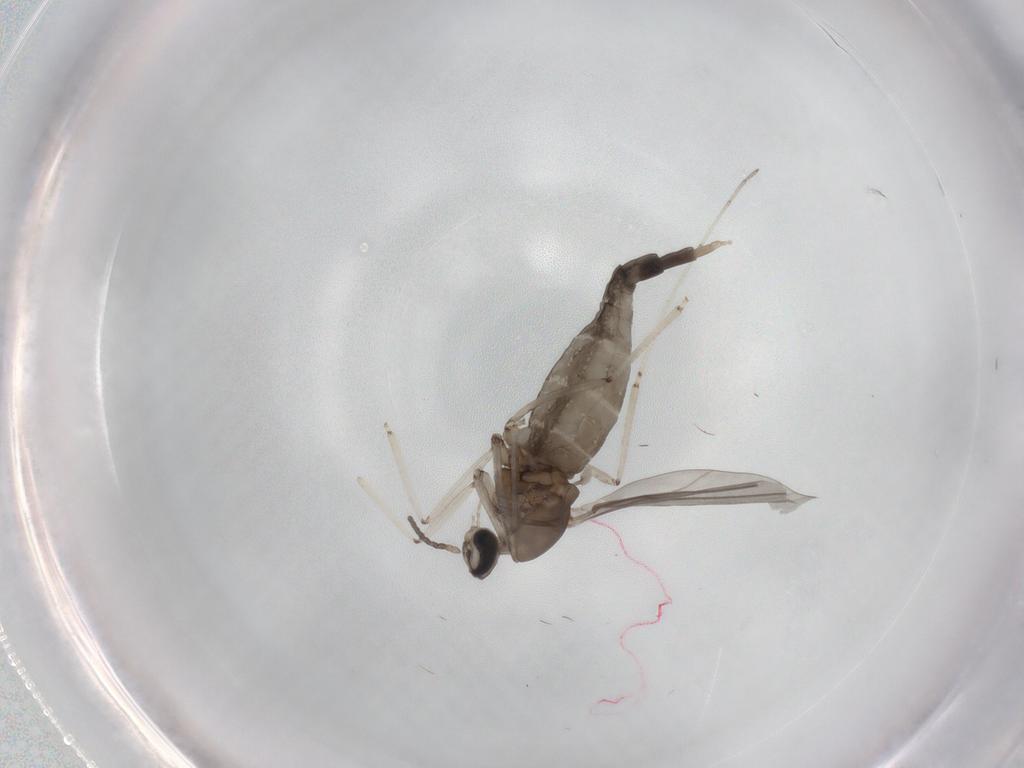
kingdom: Animalia
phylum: Arthropoda
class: Insecta
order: Diptera
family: Cecidomyiidae
